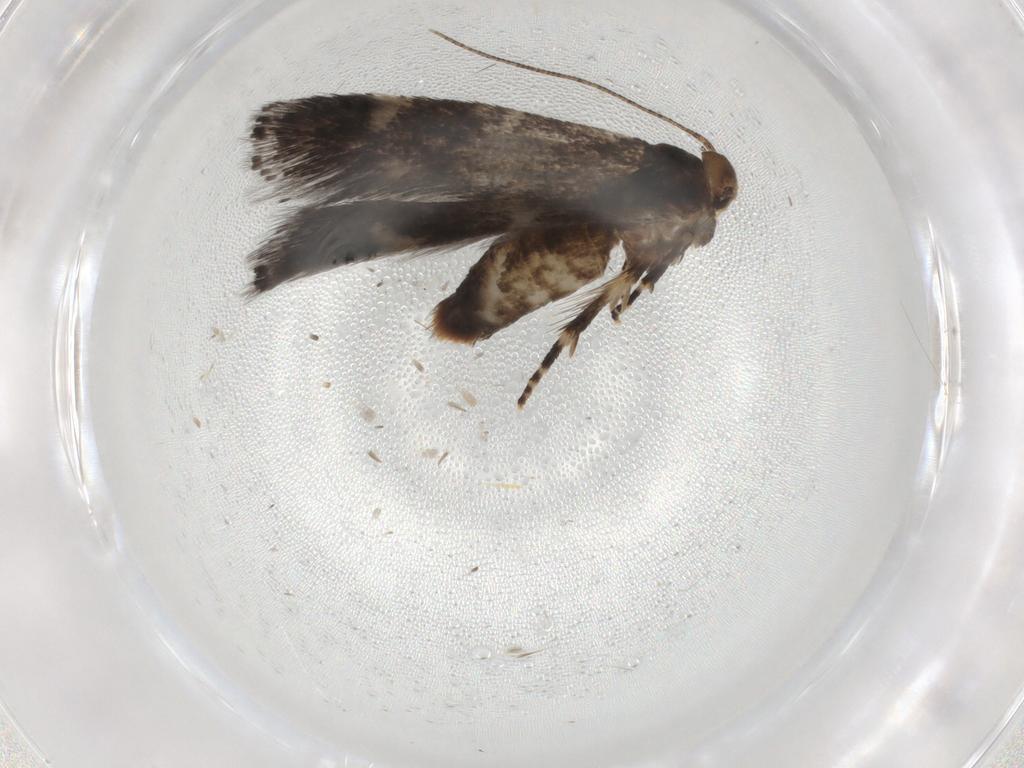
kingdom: Animalia
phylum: Arthropoda
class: Insecta
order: Lepidoptera
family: Elachistidae
